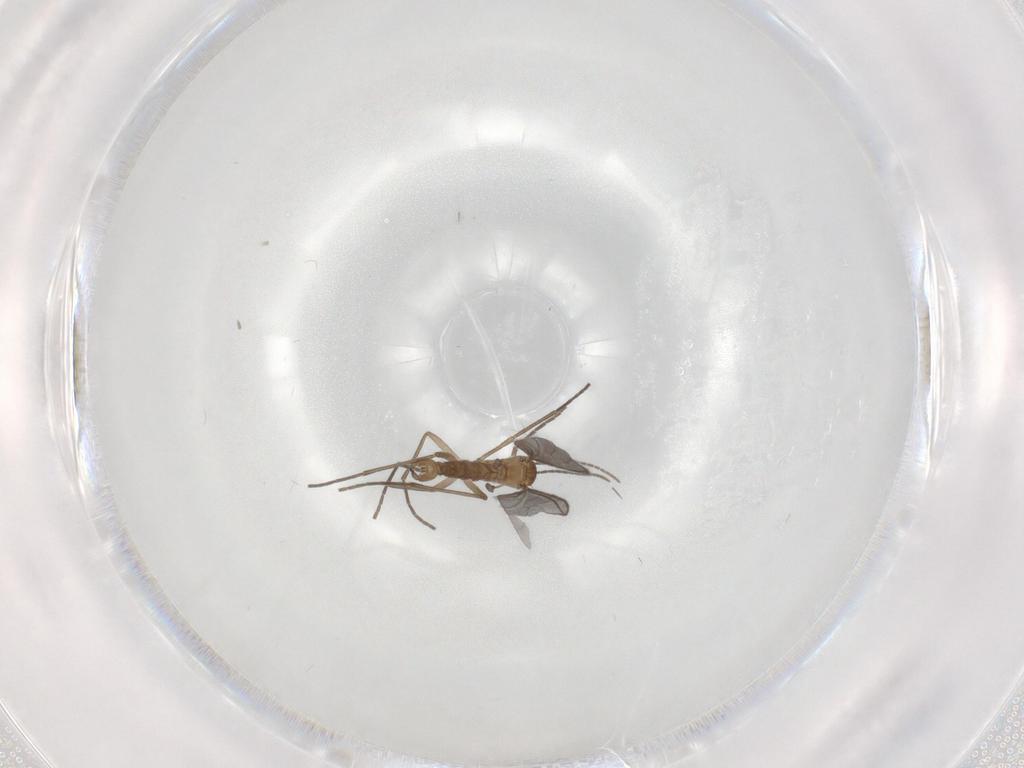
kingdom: Animalia
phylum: Arthropoda
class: Insecta
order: Diptera
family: Sciaridae
